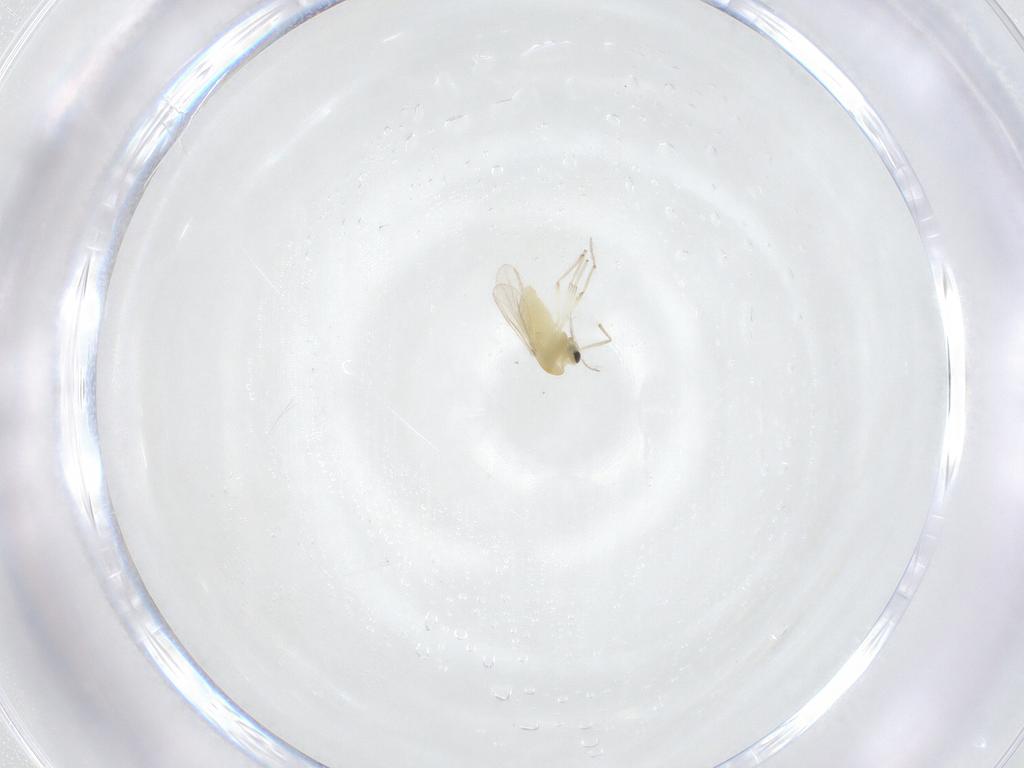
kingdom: Animalia
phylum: Arthropoda
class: Insecta
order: Diptera
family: Chironomidae
